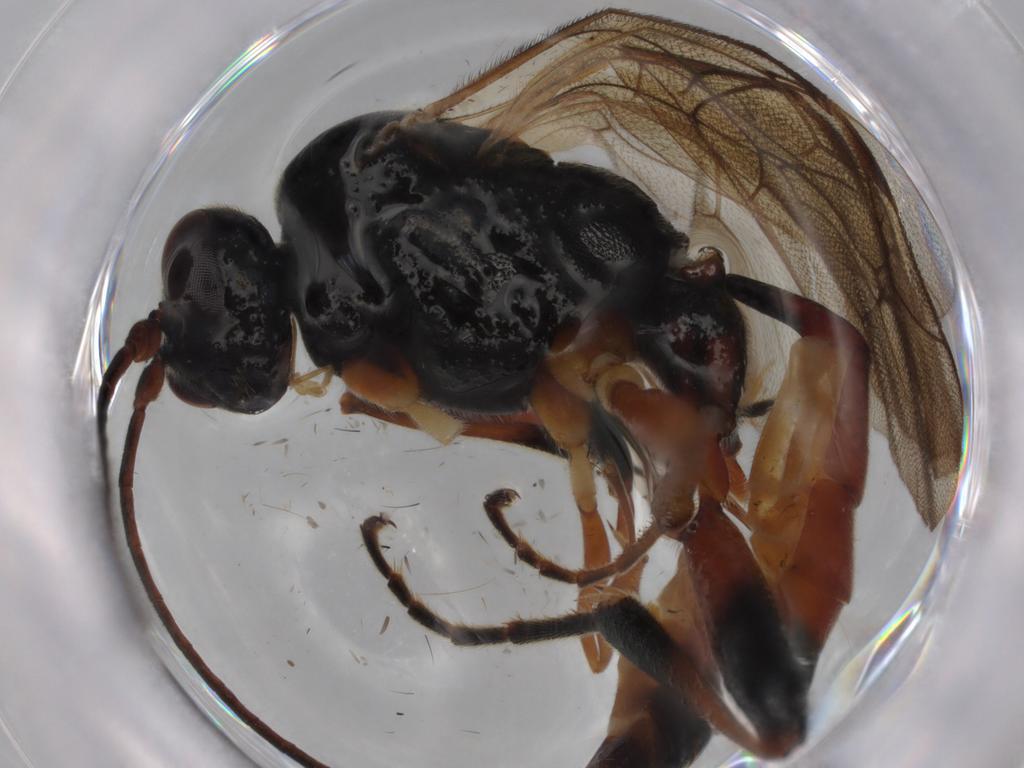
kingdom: Animalia
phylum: Arthropoda
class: Insecta
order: Hymenoptera
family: Ichneumonidae
